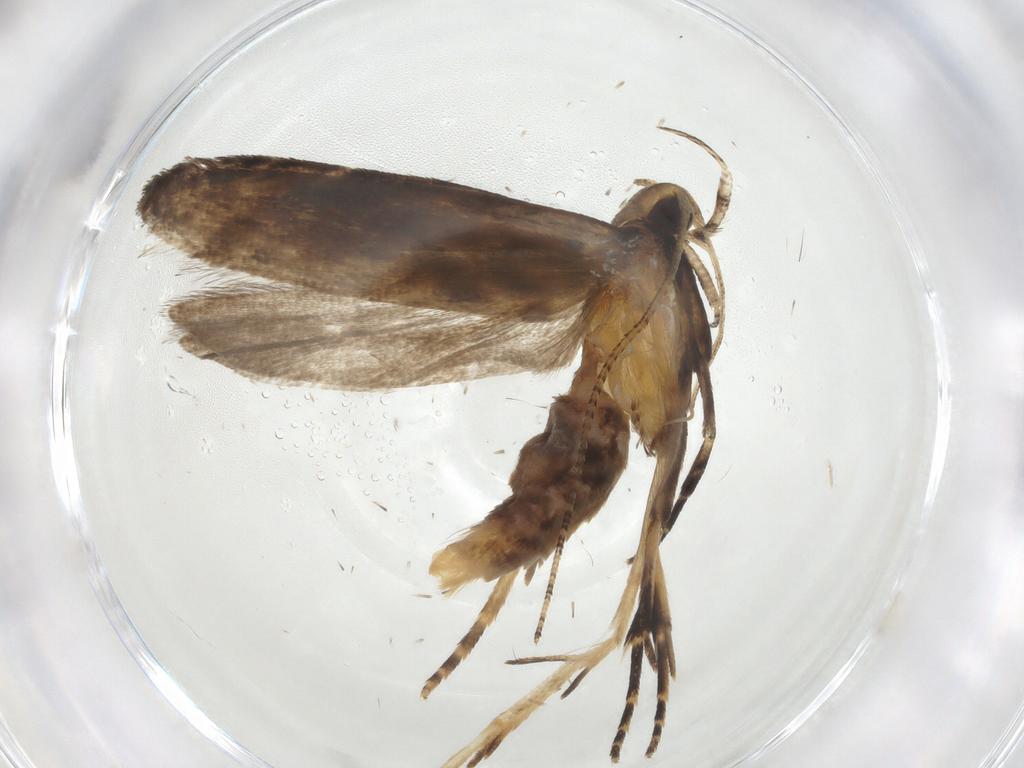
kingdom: Animalia
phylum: Arthropoda
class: Insecta
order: Lepidoptera
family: Gelechiidae
